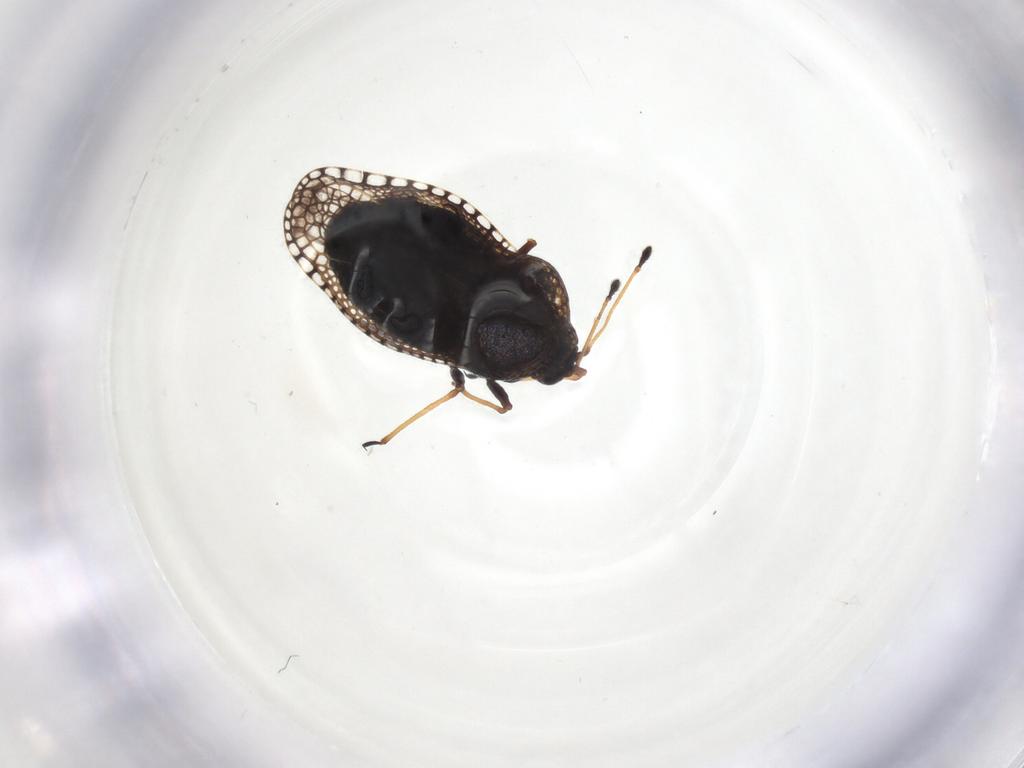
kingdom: Animalia
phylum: Arthropoda
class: Insecta
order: Hemiptera
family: Tingidae
